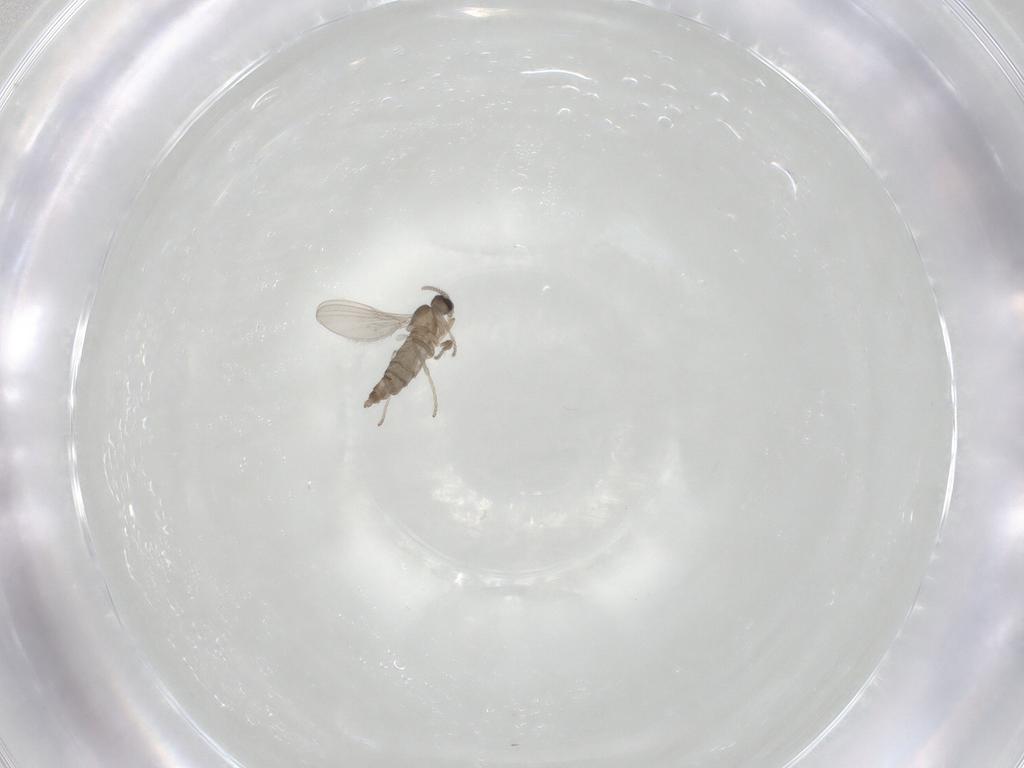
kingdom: Animalia
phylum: Arthropoda
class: Insecta
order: Diptera
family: Cecidomyiidae
